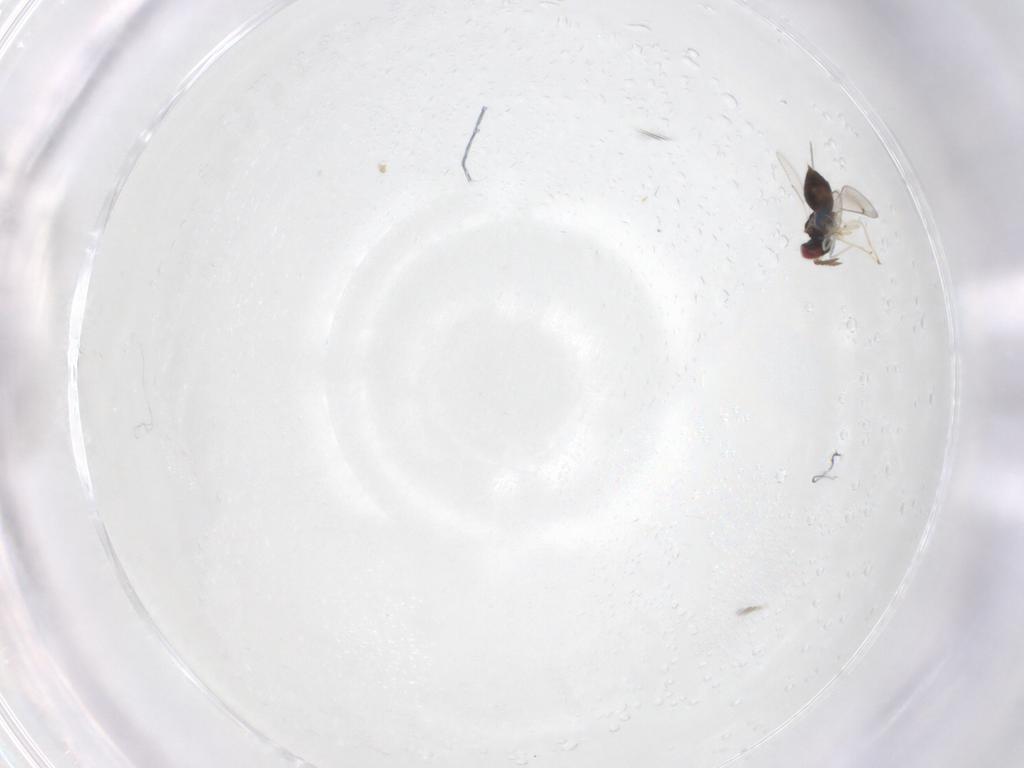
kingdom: Animalia
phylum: Arthropoda
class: Insecta
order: Hymenoptera
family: Eulophidae
